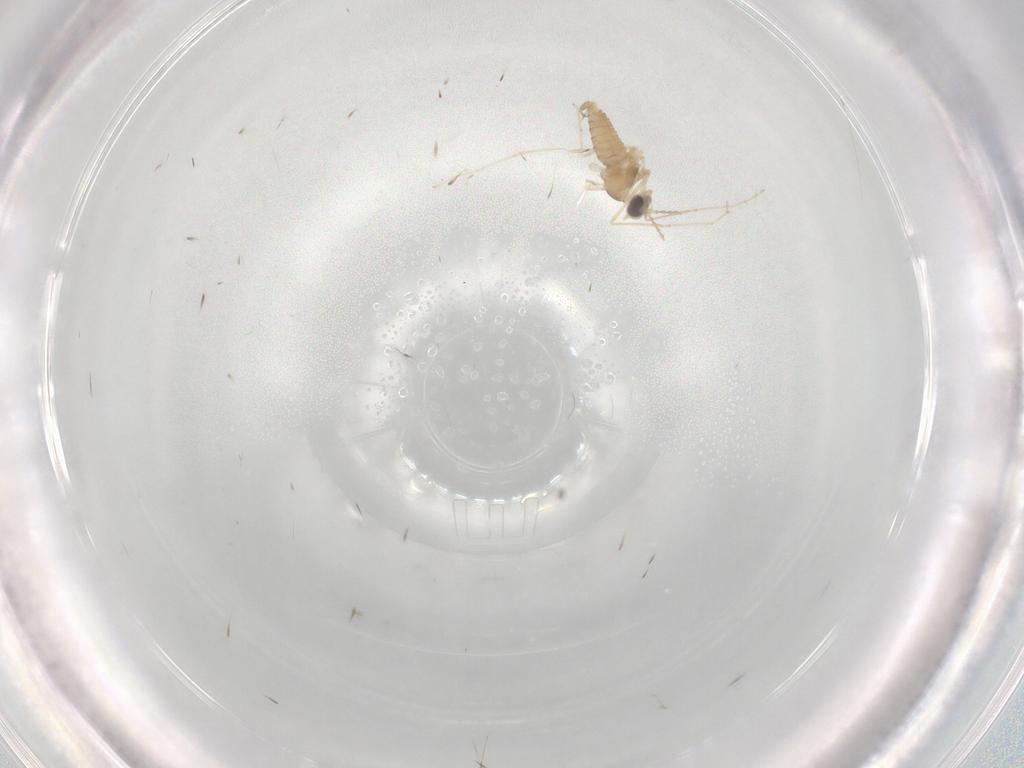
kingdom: Animalia
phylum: Arthropoda
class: Insecta
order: Diptera
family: Cecidomyiidae
